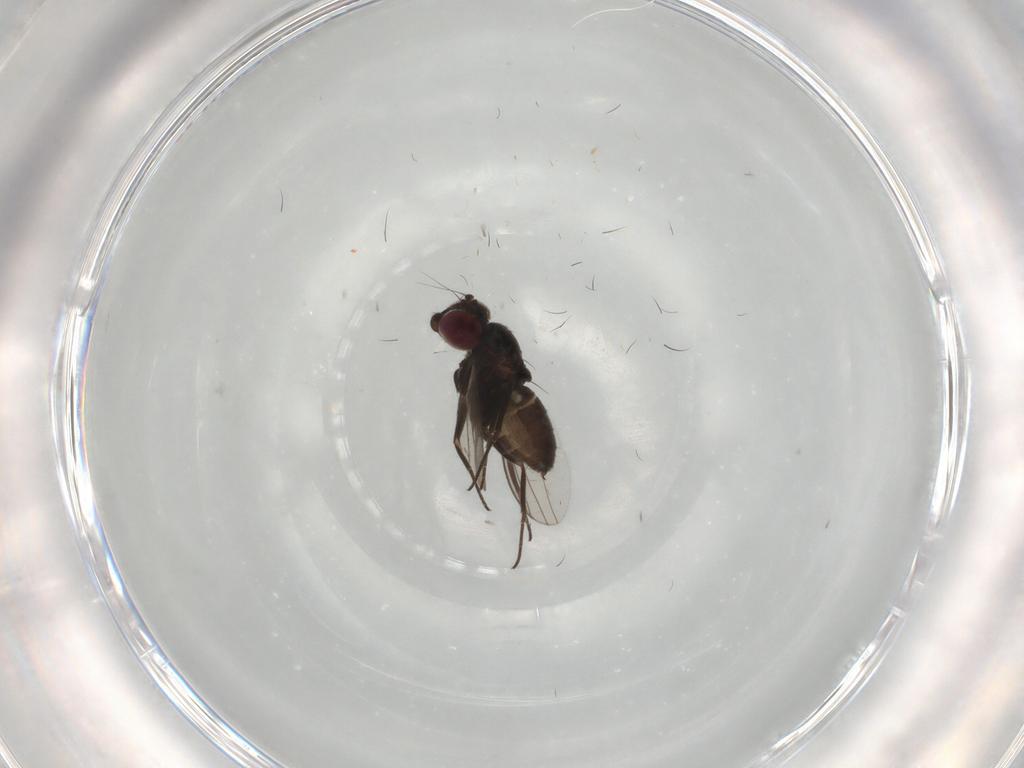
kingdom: Animalia
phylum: Arthropoda
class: Insecta
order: Diptera
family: Dolichopodidae
